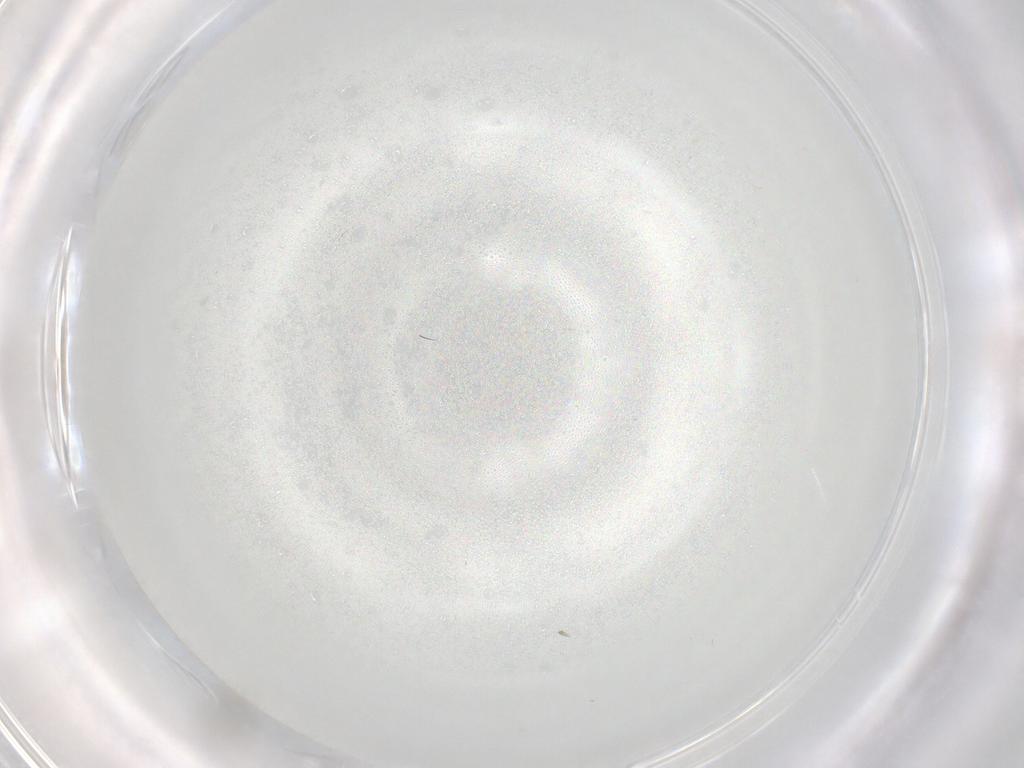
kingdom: Animalia
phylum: Arthropoda
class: Insecta
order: Diptera
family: Cecidomyiidae
